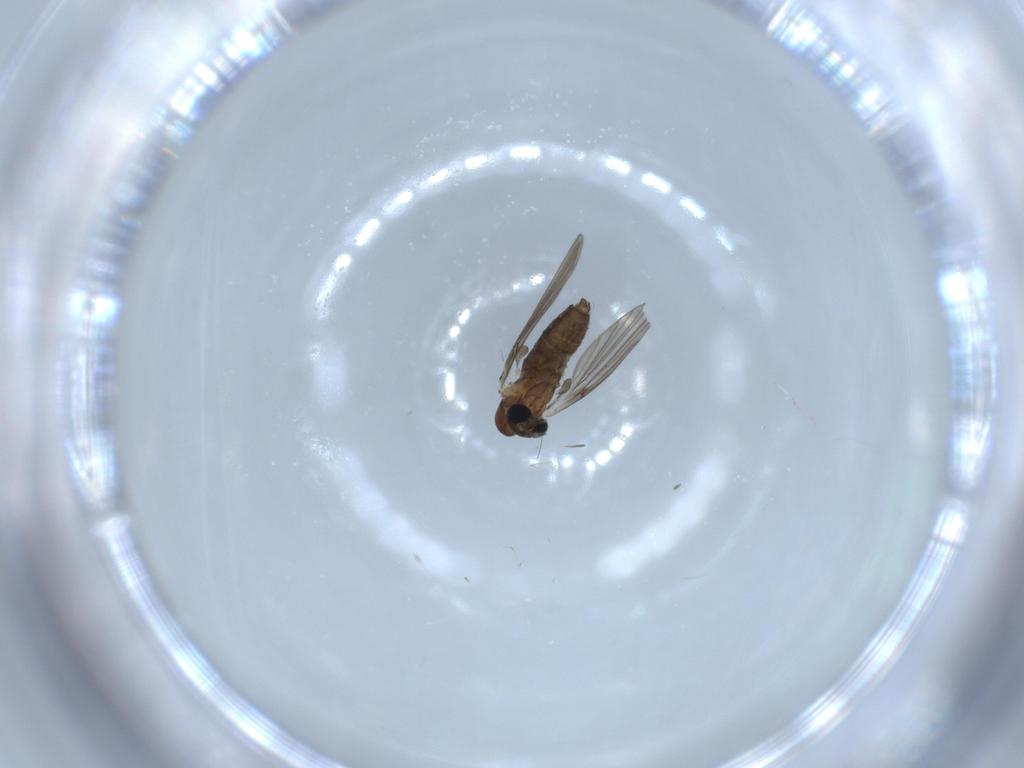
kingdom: Animalia
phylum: Arthropoda
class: Insecta
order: Diptera
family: Psychodidae
